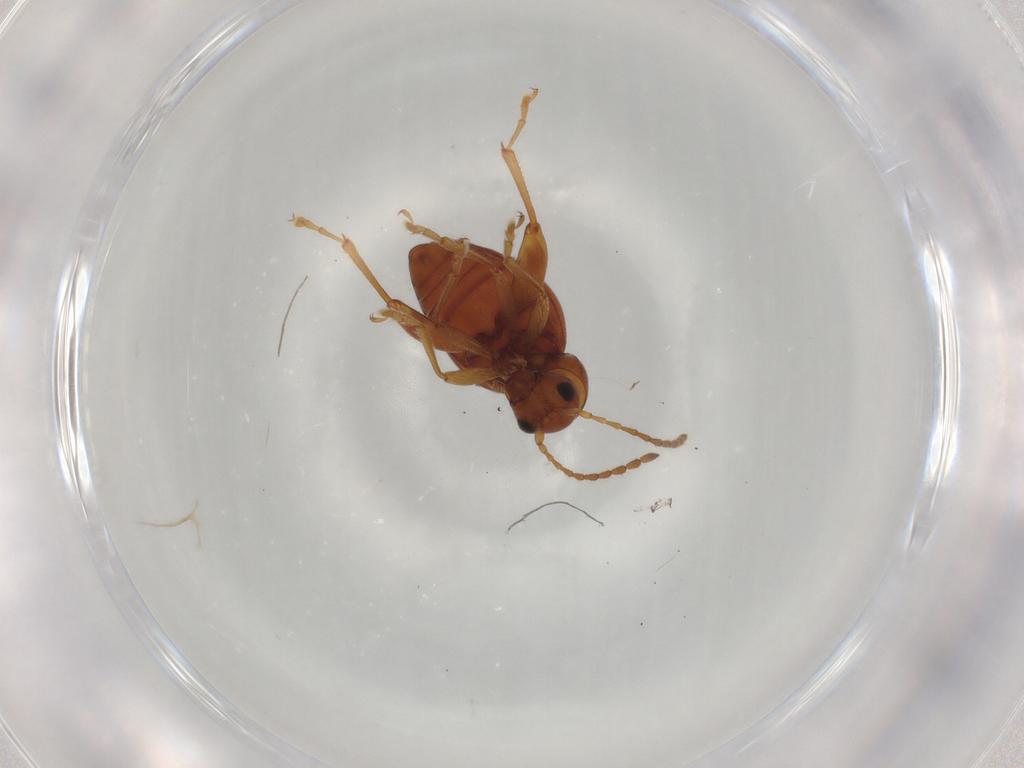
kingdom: Animalia
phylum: Arthropoda
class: Insecta
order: Coleoptera
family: Chrysomelidae
